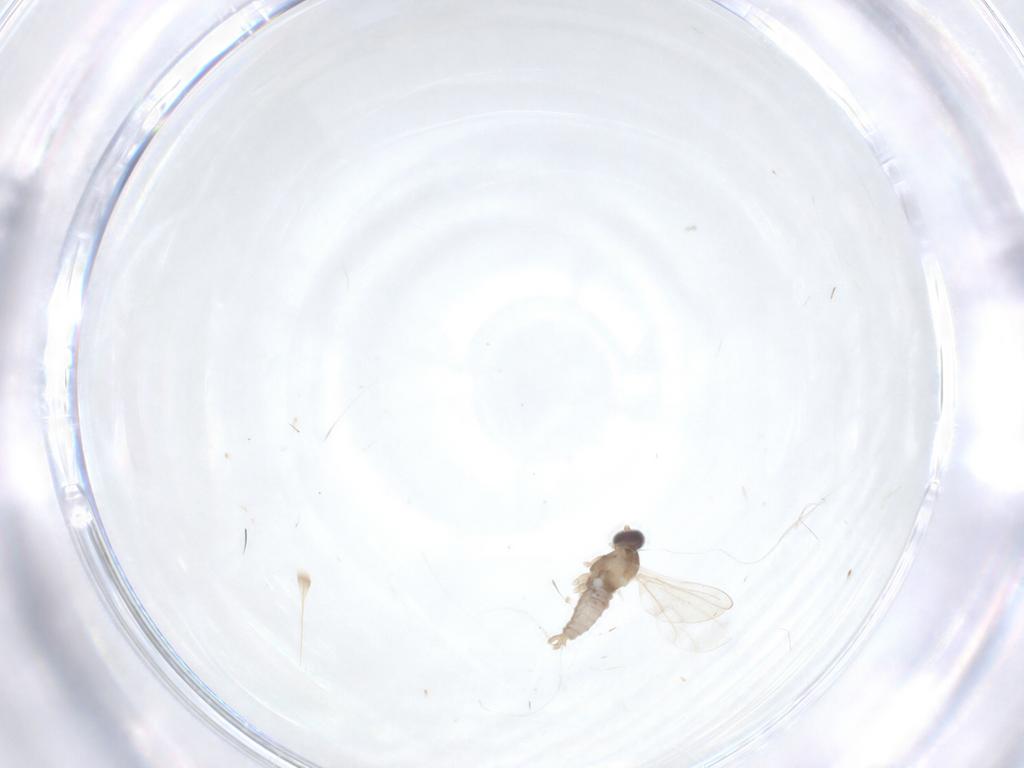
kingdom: Animalia
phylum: Arthropoda
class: Insecta
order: Diptera
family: Cecidomyiidae
